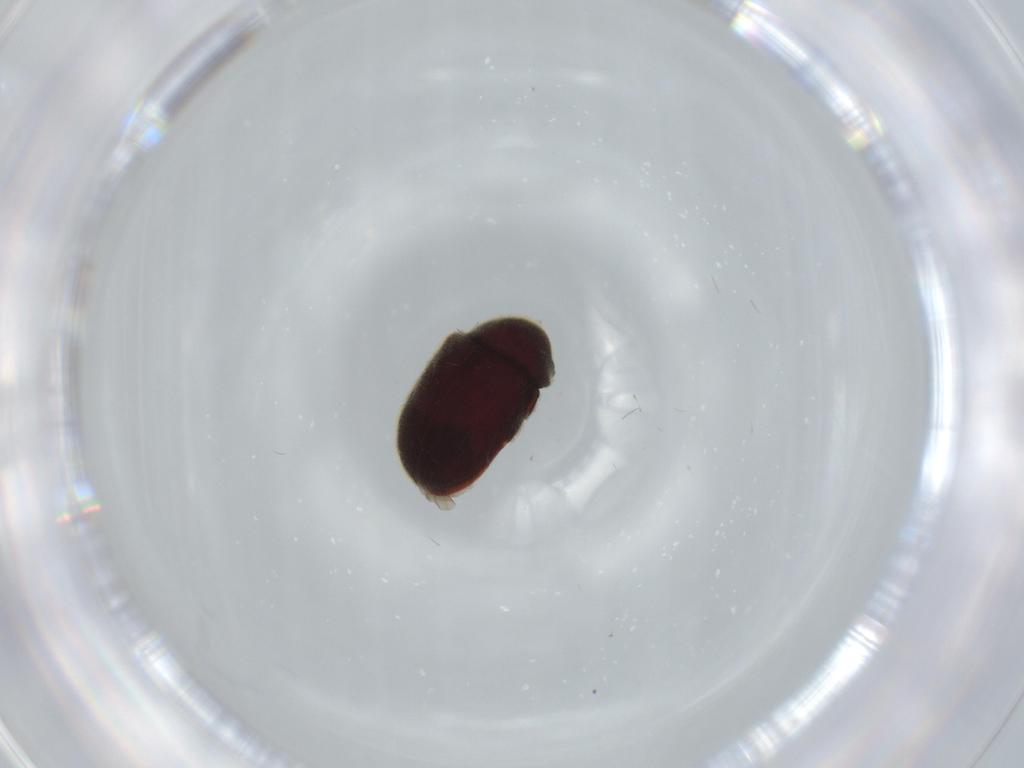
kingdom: Animalia
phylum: Arthropoda
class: Insecta
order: Coleoptera
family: Ptinidae
